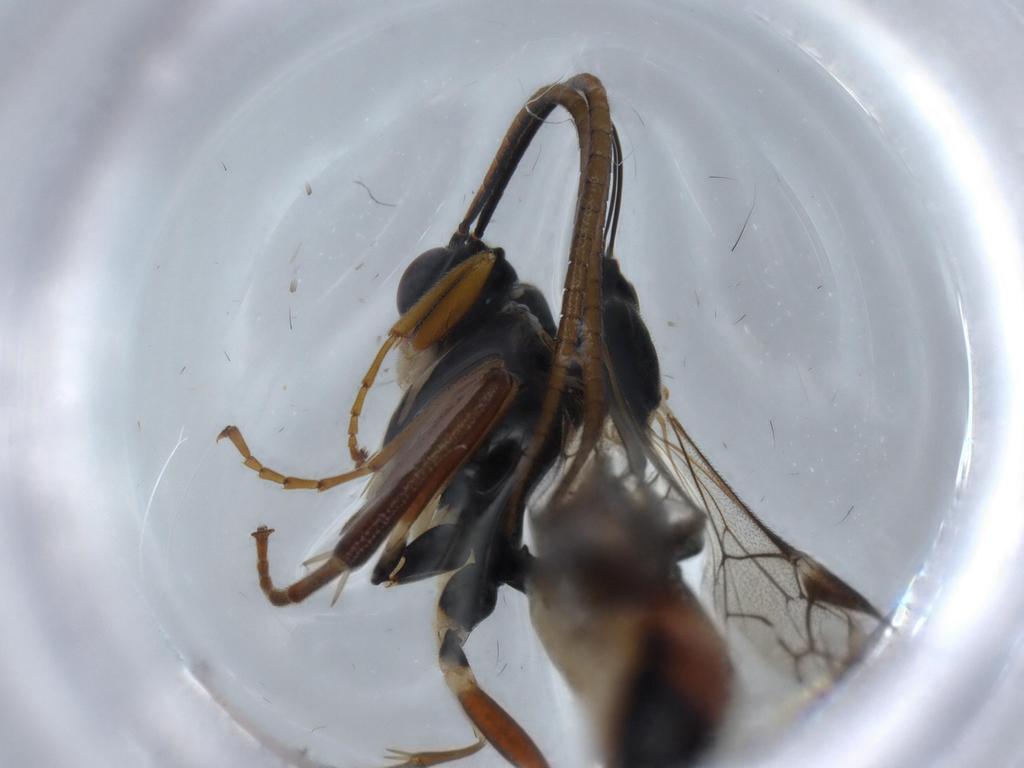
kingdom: Animalia
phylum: Arthropoda
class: Insecta
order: Hymenoptera
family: Ichneumonidae
